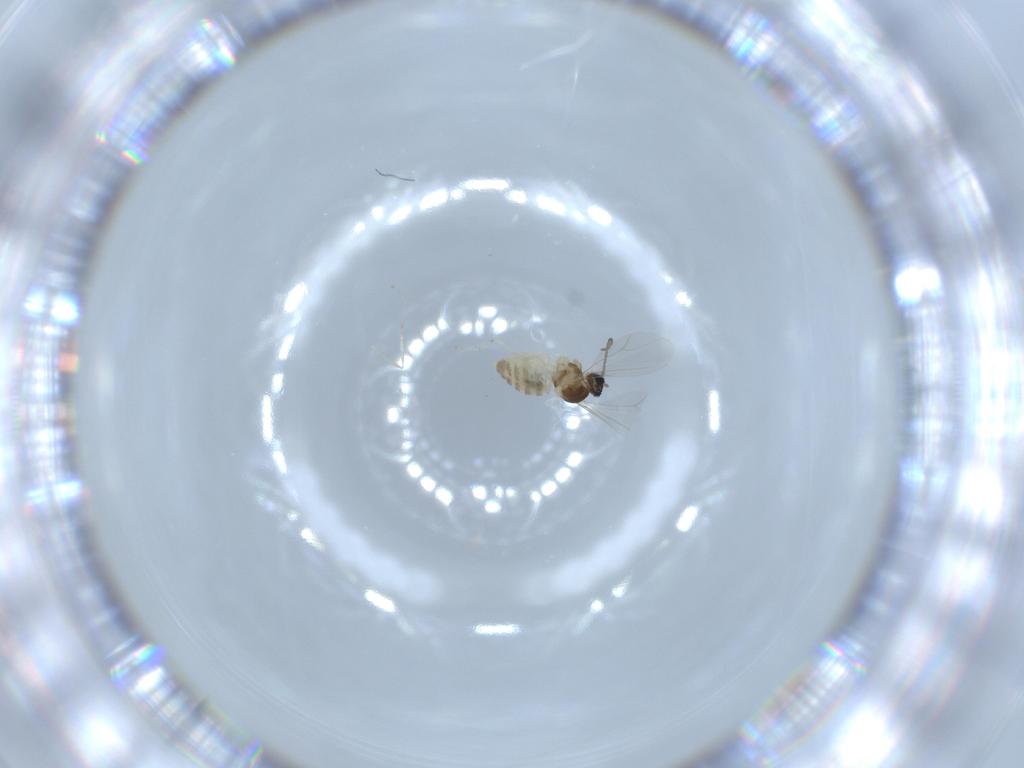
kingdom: Animalia
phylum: Arthropoda
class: Insecta
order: Diptera
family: Cecidomyiidae
